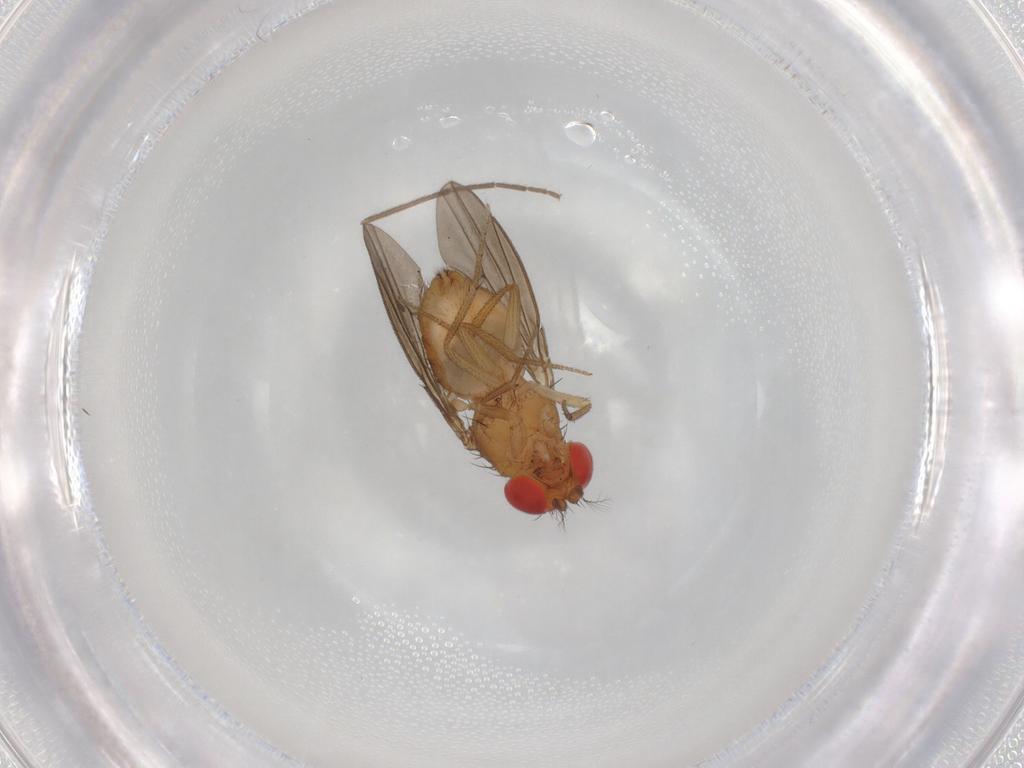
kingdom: Animalia
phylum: Arthropoda
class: Insecta
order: Diptera
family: Drosophilidae
